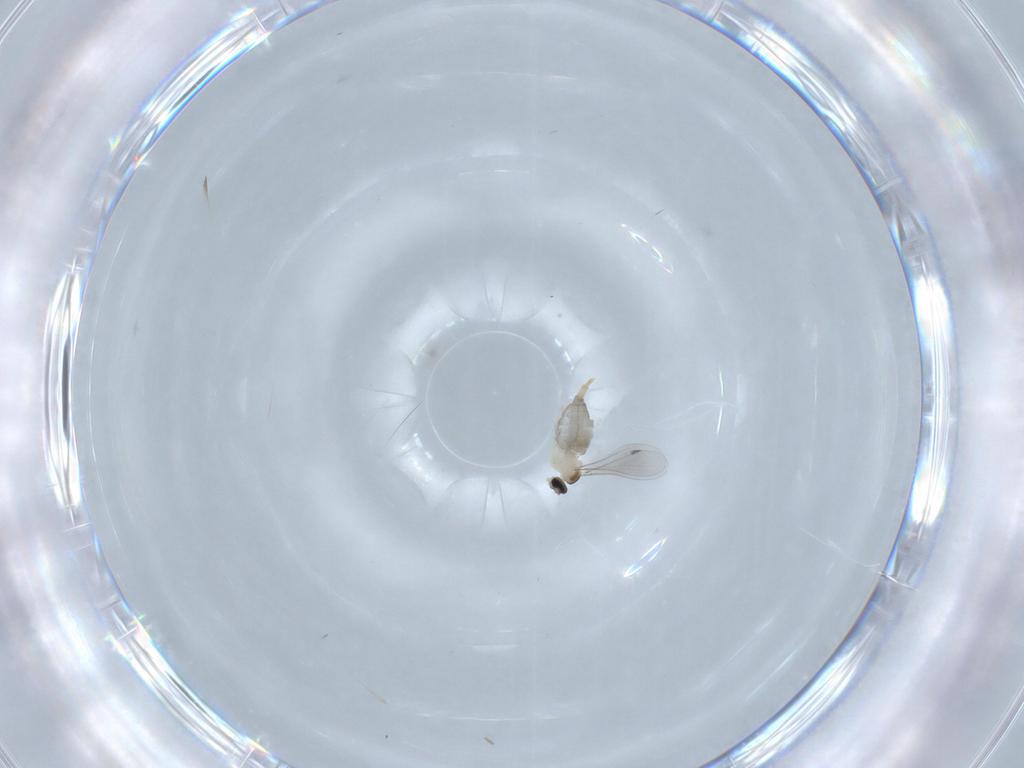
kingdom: Animalia
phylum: Arthropoda
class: Insecta
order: Diptera
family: Cecidomyiidae
